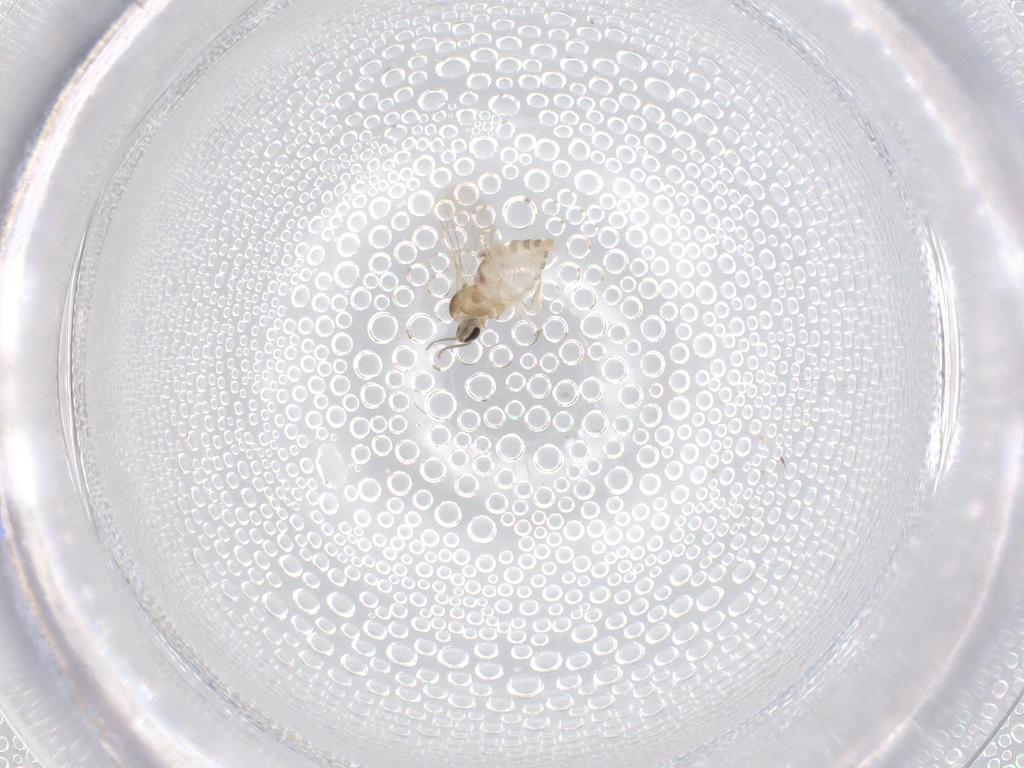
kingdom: Animalia
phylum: Arthropoda
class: Insecta
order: Diptera
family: Cecidomyiidae
